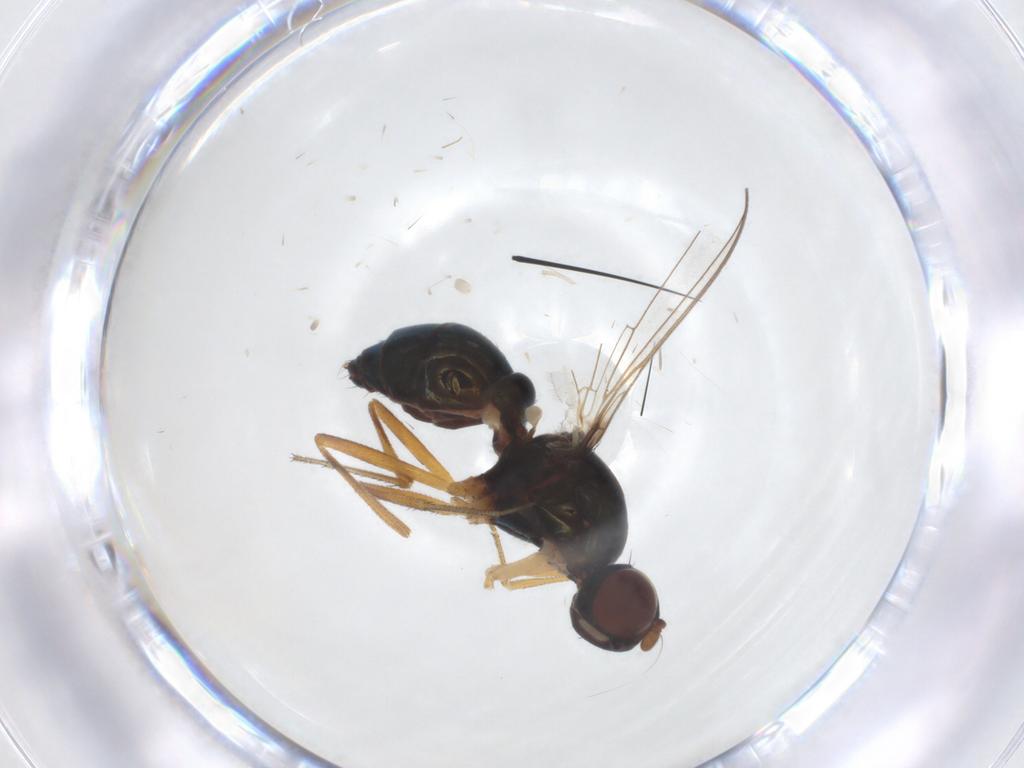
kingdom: Animalia
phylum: Arthropoda
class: Insecta
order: Diptera
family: Sepsidae
